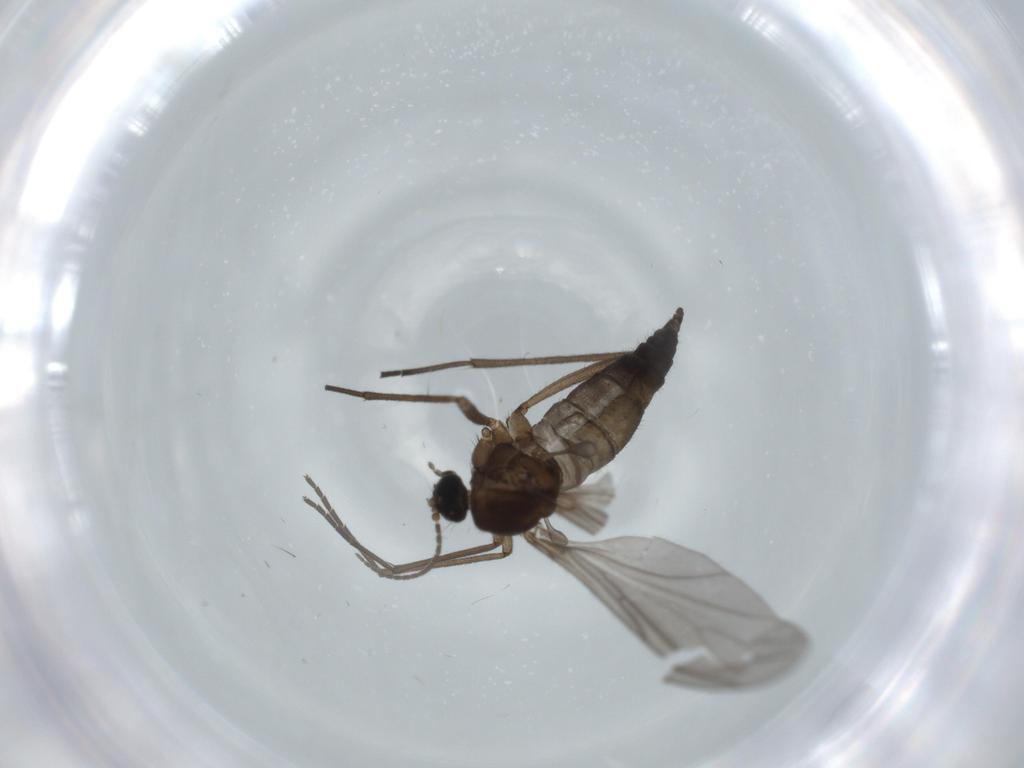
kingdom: Animalia
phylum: Arthropoda
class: Insecta
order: Diptera
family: Sciaridae
